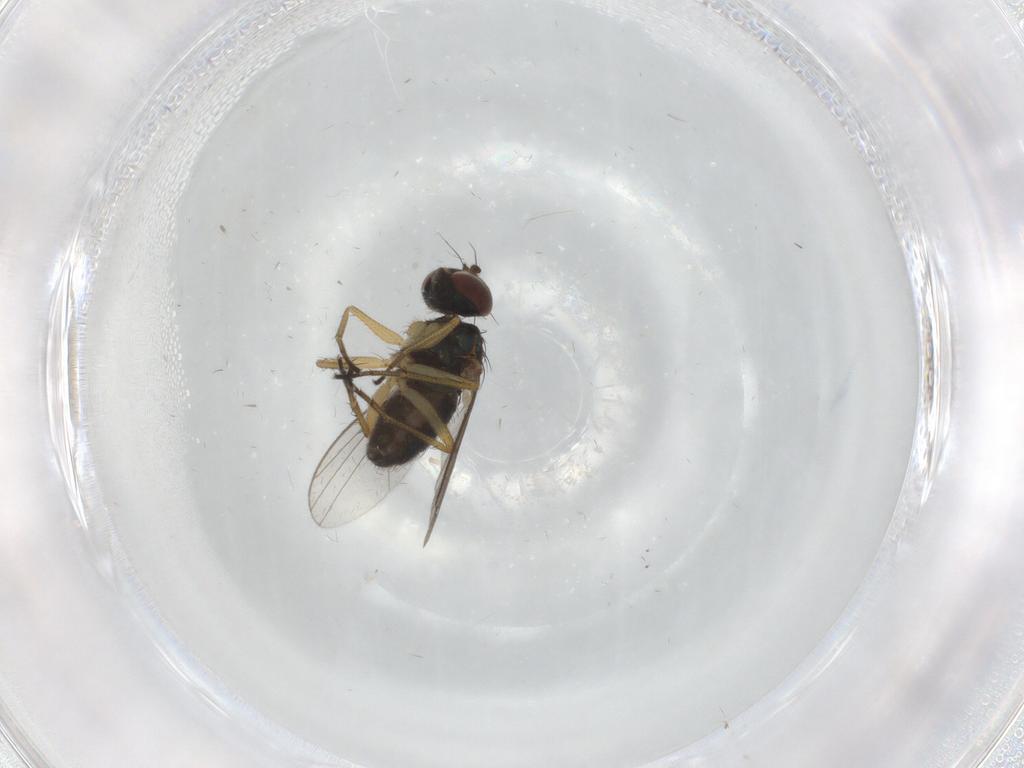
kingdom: Animalia
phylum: Arthropoda
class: Insecta
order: Diptera
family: Dolichopodidae
